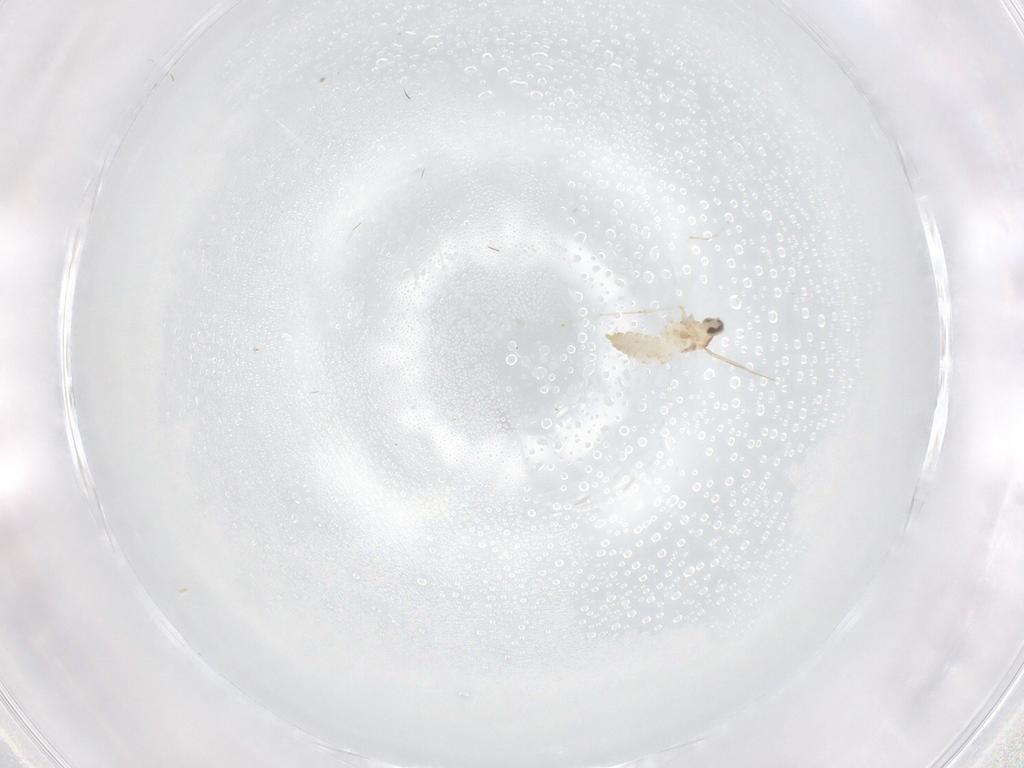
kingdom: Animalia
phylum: Arthropoda
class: Insecta
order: Diptera
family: Cecidomyiidae
